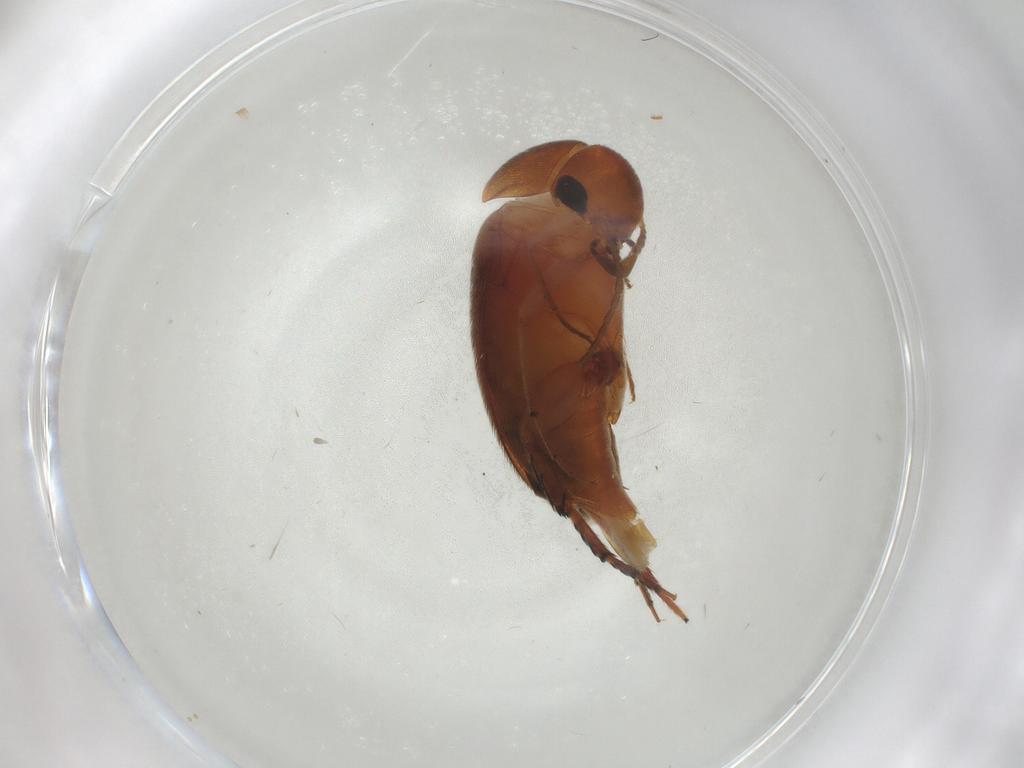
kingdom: Animalia
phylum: Arthropoda
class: Insecta
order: Coleoptera
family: Mordellidae
